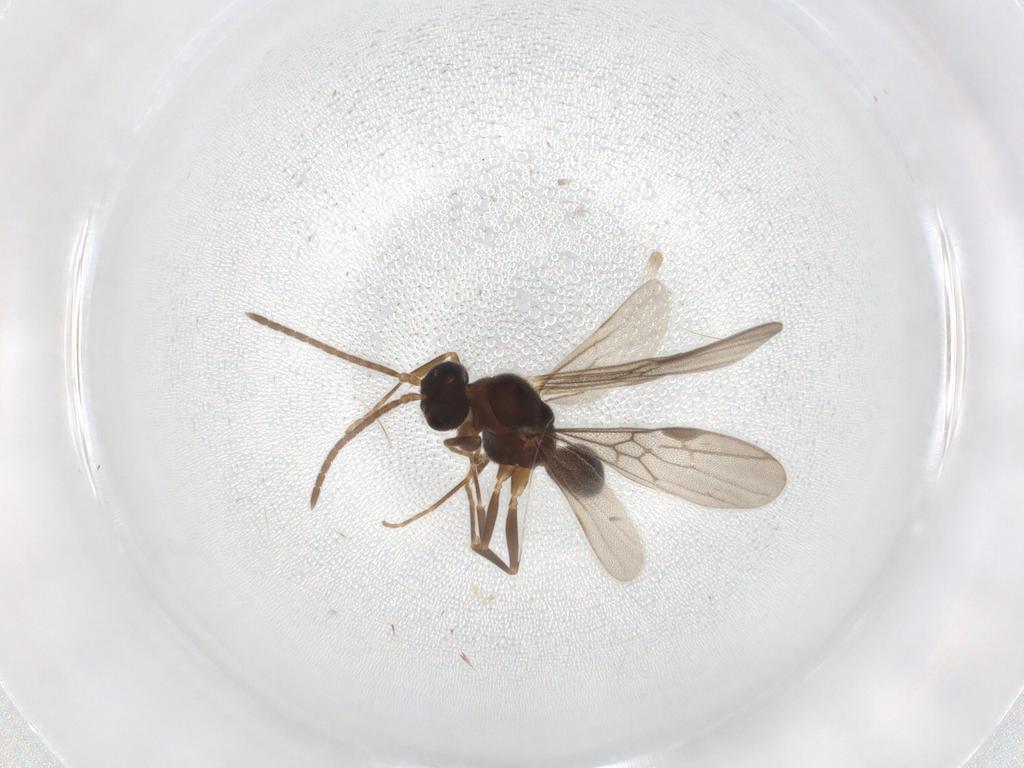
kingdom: Animalia
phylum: Arthropoda
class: Insecta
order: Hymenoptera
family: Formicidae
